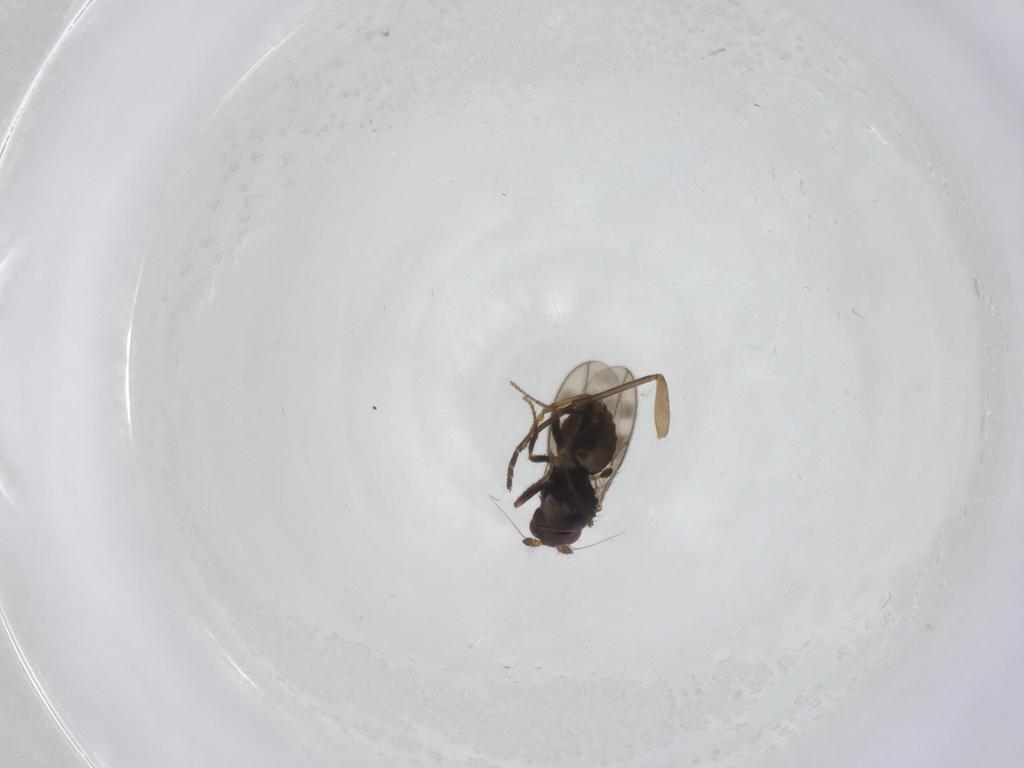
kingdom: Animalia
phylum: Arthropoda
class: Insecta
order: Diptera
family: Sphaeroceridae
